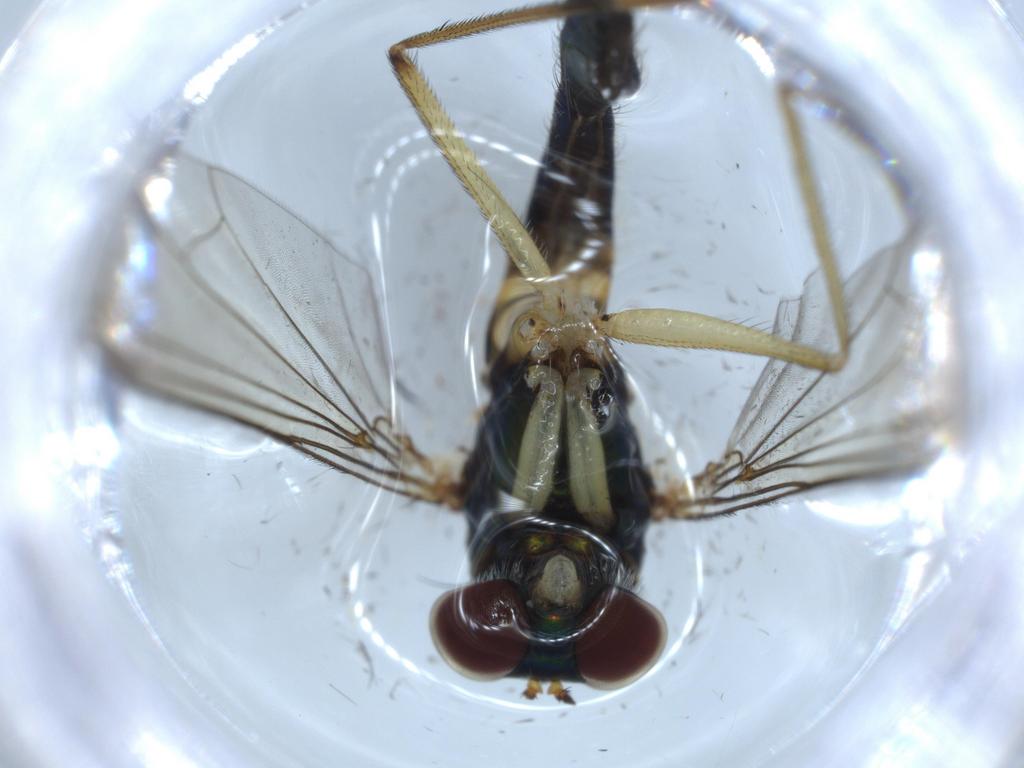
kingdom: Animalia
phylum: Arthropoda
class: Insecta
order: Diptera
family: Dolichopodidae
